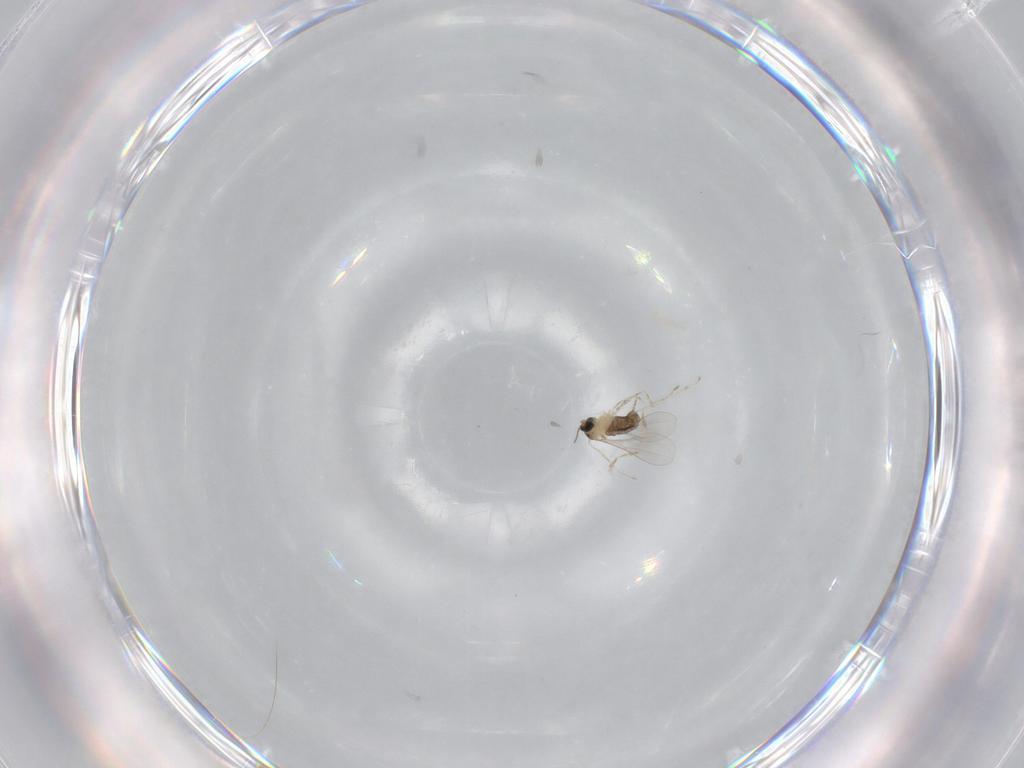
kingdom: Animalia
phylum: Arthropoda
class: Insecta
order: Diptera
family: Cecidomyiidae
